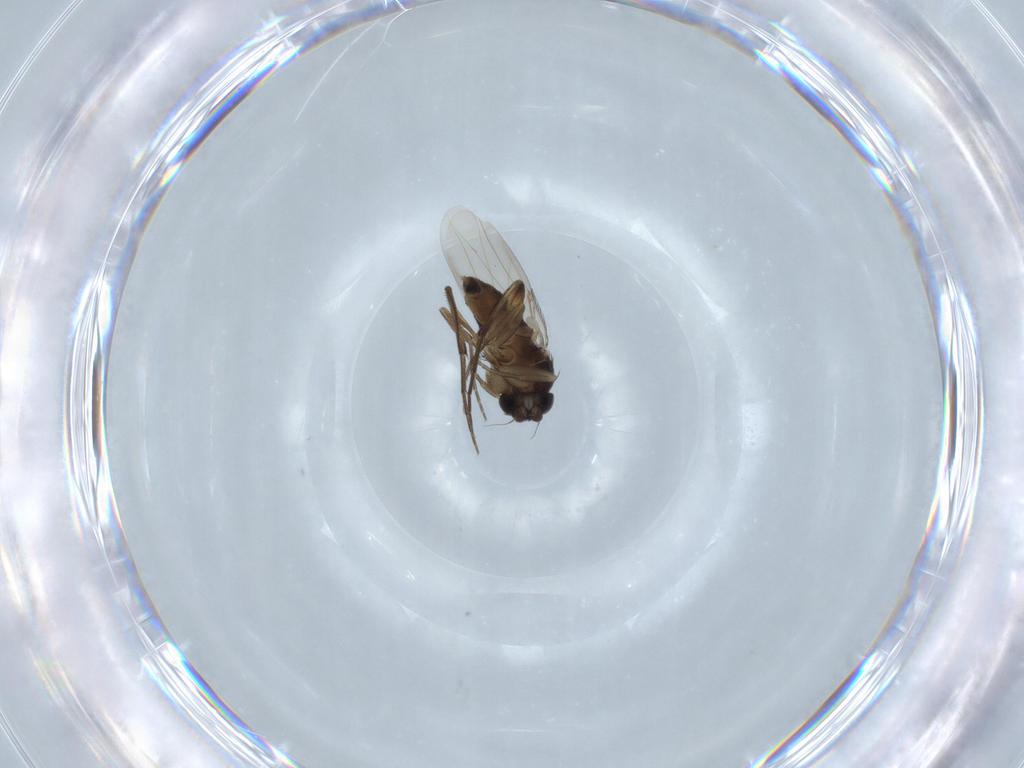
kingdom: Animalia
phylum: Arthropoda
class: Insecta
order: Diptera
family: Phoridae
